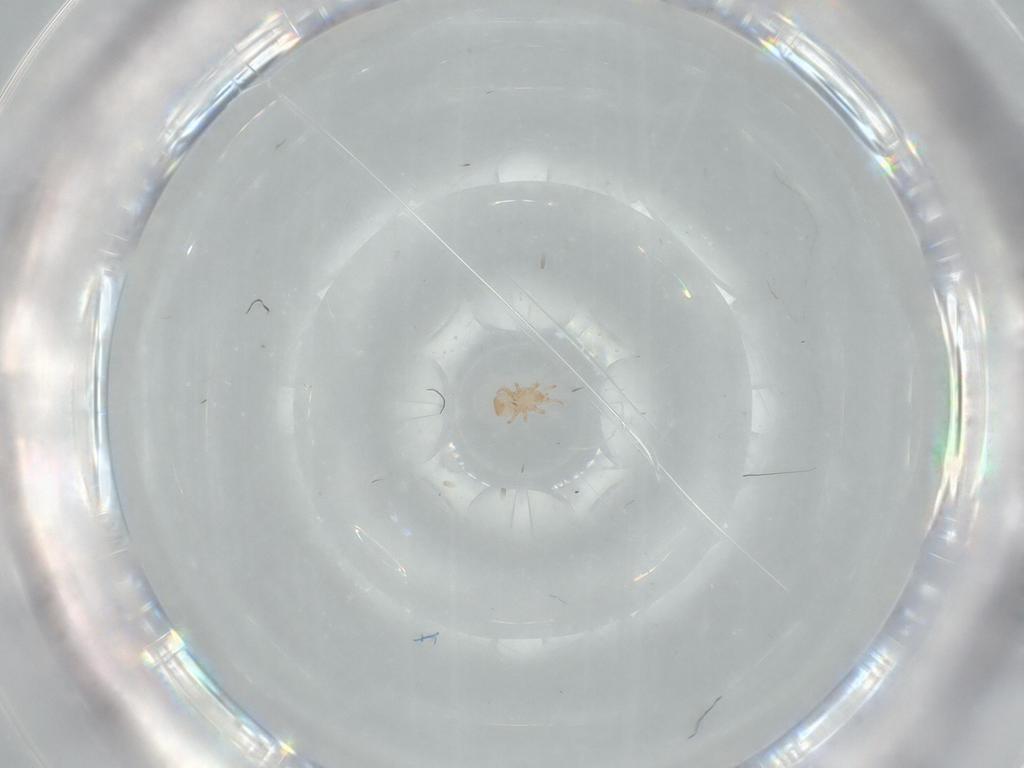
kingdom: Animalia
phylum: Arthropoda
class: Arachnida
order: Mesostigmata
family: Digamasellidae
